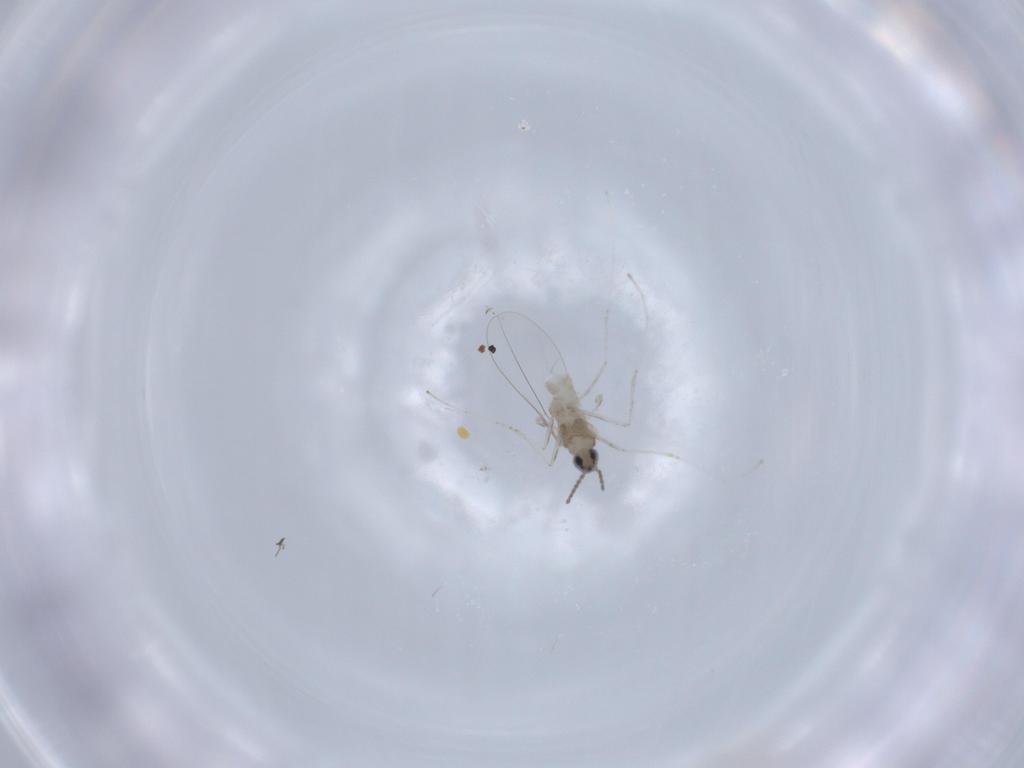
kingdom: Animalia
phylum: Arthropoda
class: Insecta
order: Diptera
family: Cecidomyiidae
